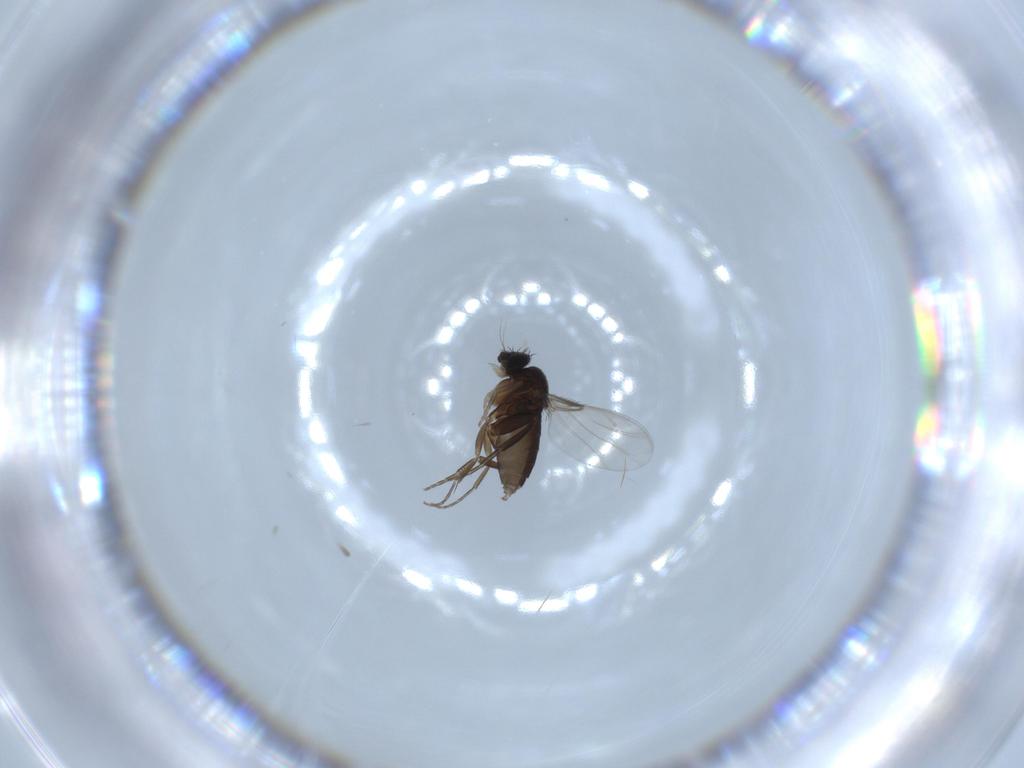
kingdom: Animalia
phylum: Arthropoda
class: Insecta
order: Diptera
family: Phoridae
